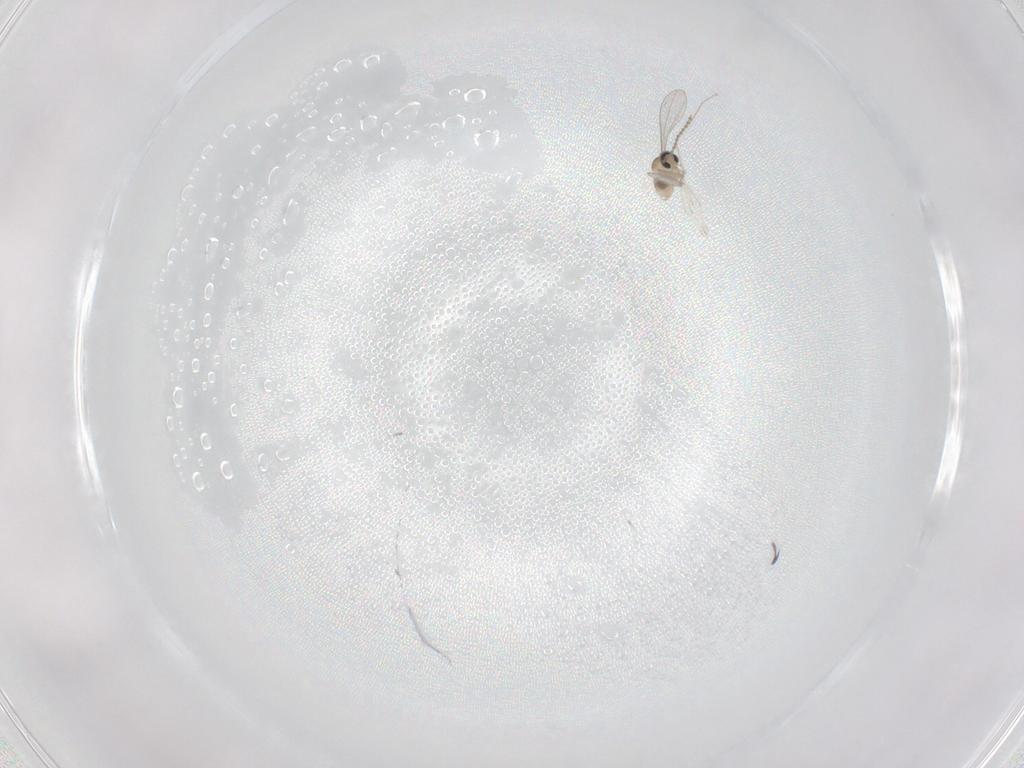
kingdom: Animalia
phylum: Arthropoda
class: Insecta
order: Diptera
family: Cecidomyiidae
